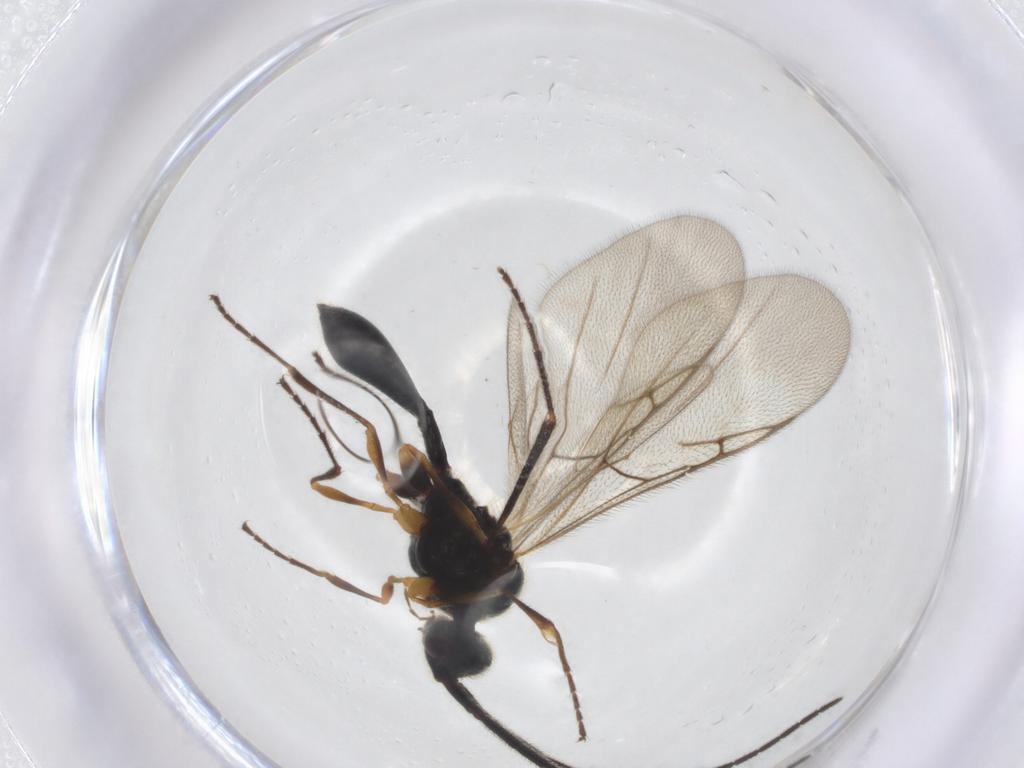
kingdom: Animalia
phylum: Arthropoda
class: Insecta
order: Hymenoptera
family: Diapriidae
